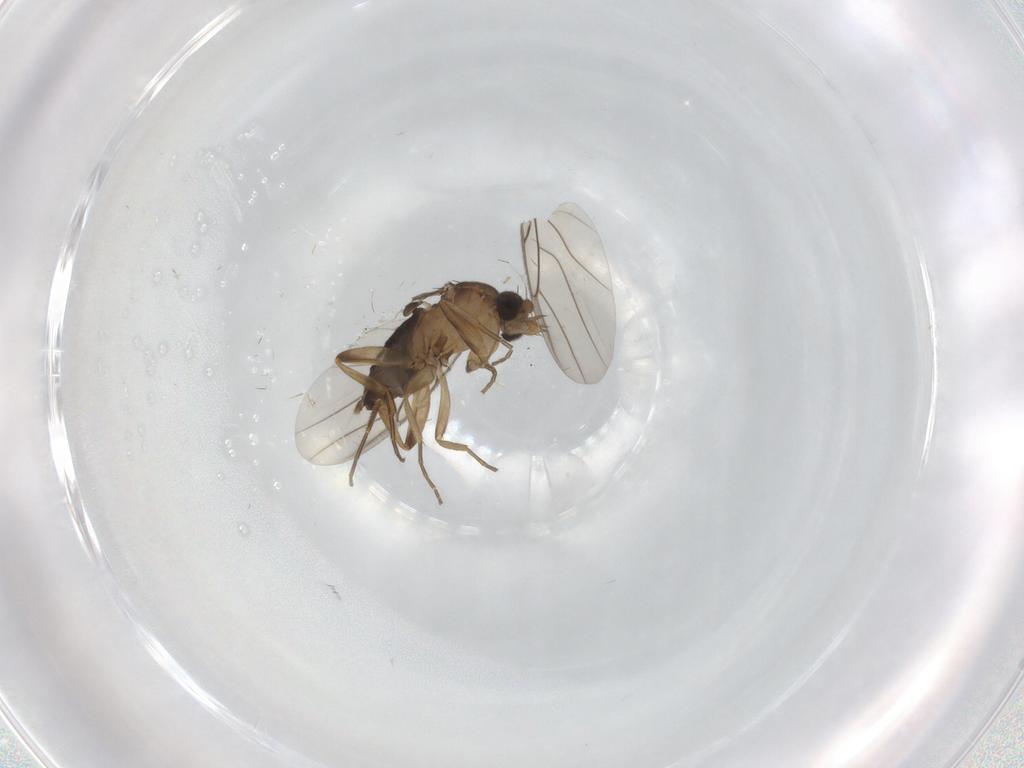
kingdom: Animalia
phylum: Arthropoda
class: Insecta
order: Diptera
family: Phoridae
